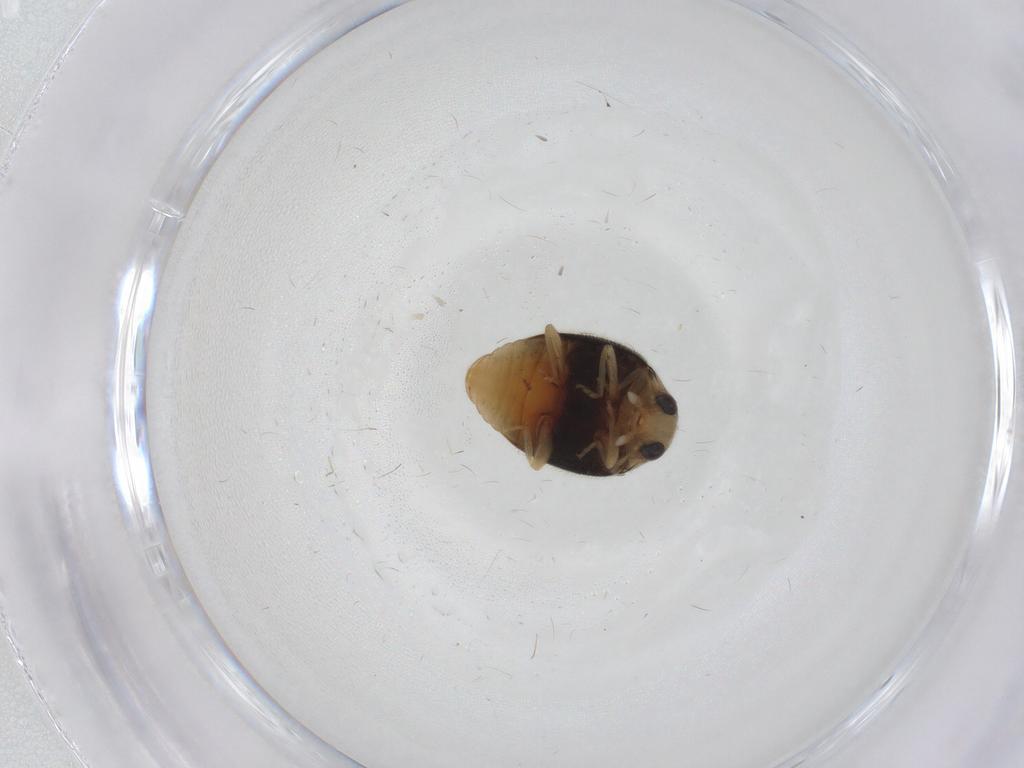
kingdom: Animalia
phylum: Arthropoda
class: Insecta
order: Coleoptera
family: Coccinellidae
